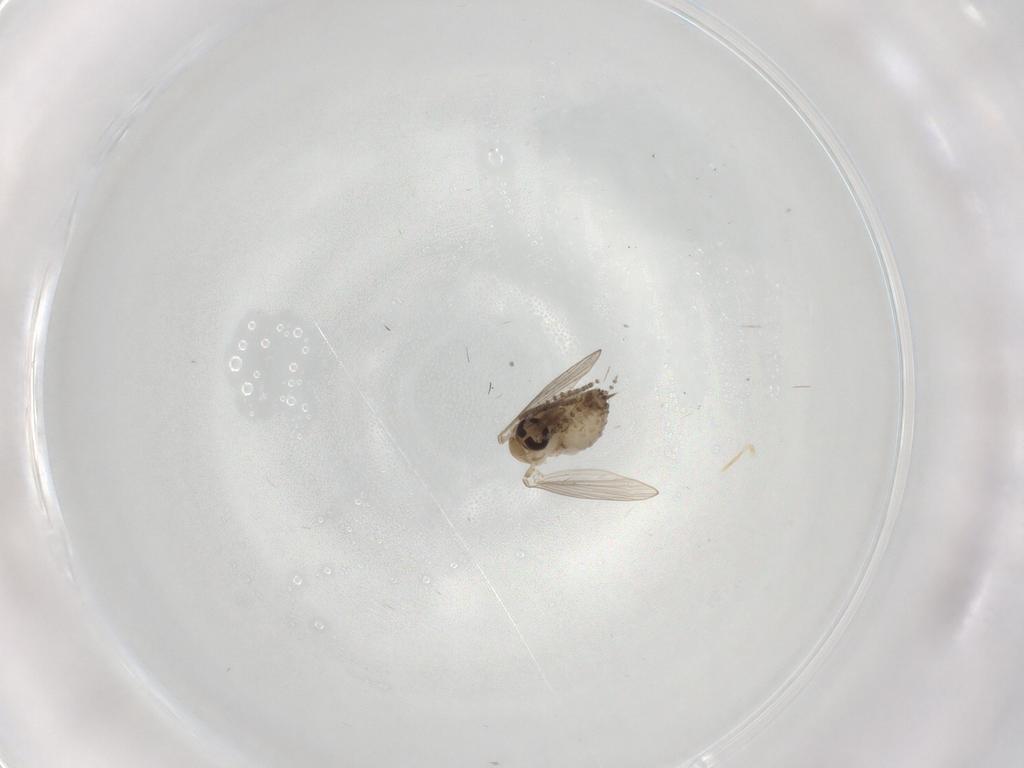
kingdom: Animalia
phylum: Arthropoda
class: Insecta
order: Diptera
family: Psychodidae
